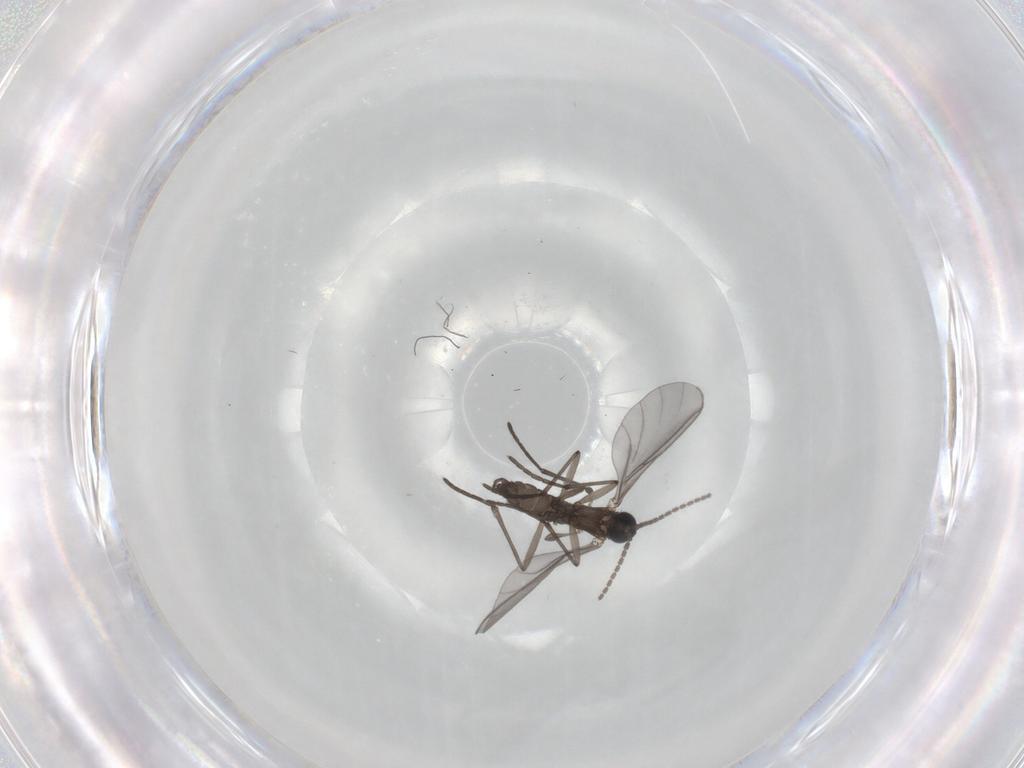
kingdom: Animalia
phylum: Arthropoda
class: Insecta
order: Diptera
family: Sciaridae
